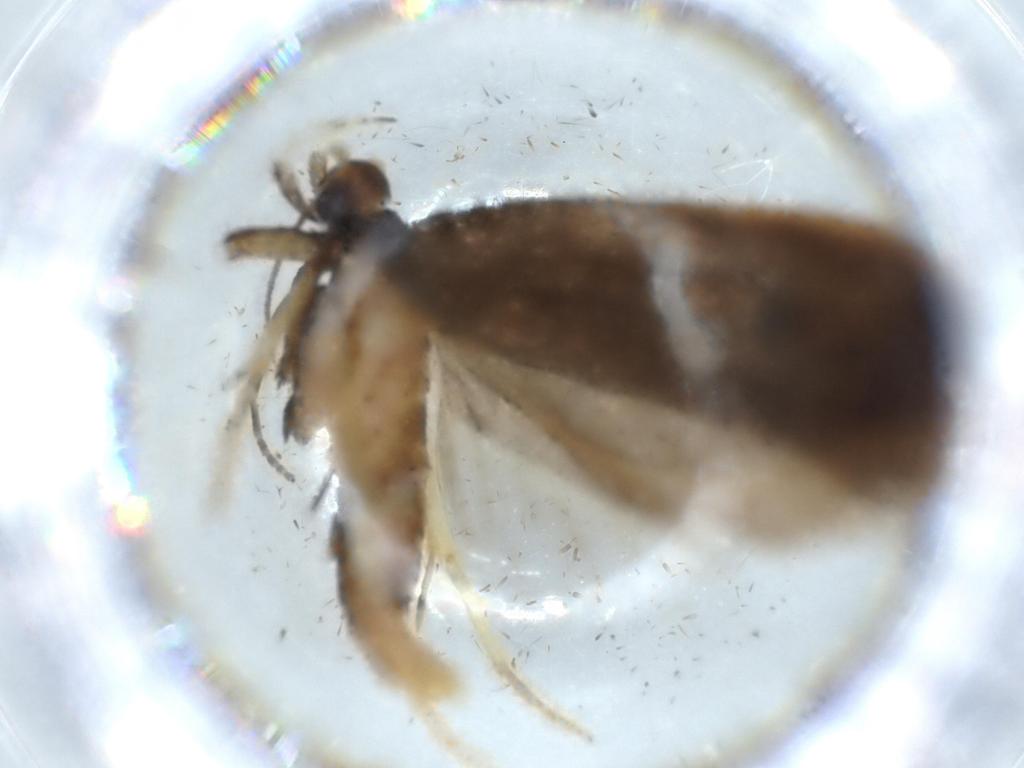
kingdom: Animalia
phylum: Arthropoda
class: Insecta
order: Lepidoptera
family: Lecithoceridae
